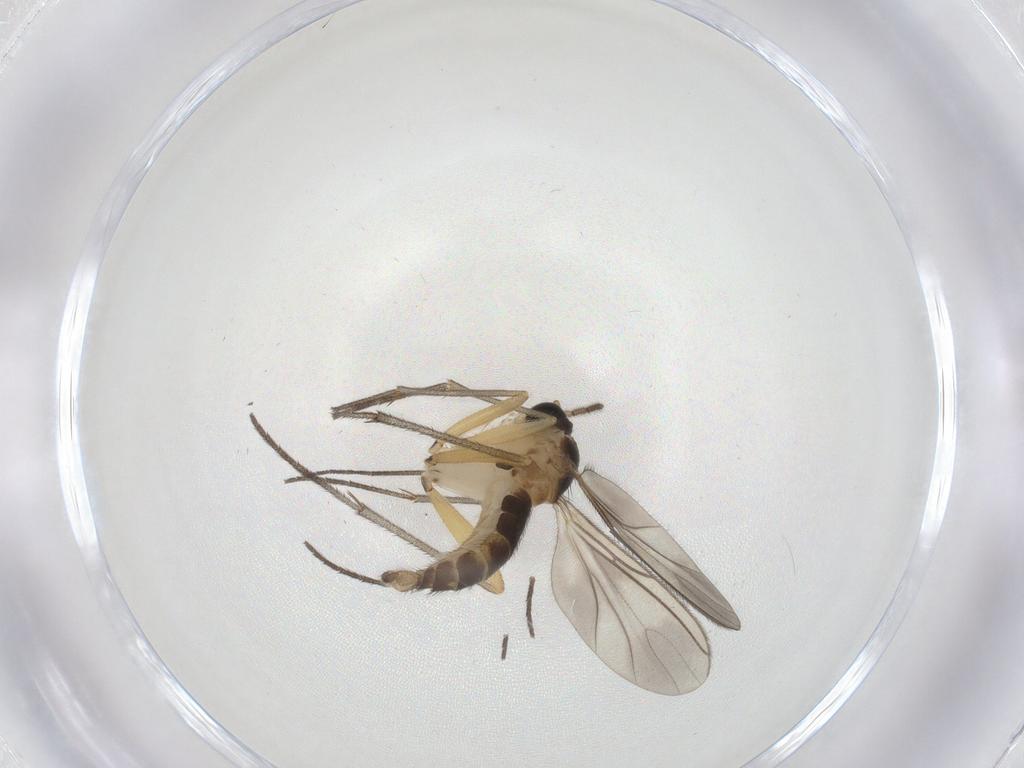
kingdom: Animalia
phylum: Arthropoda
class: Insecta
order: Diptera
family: Sciaridae
